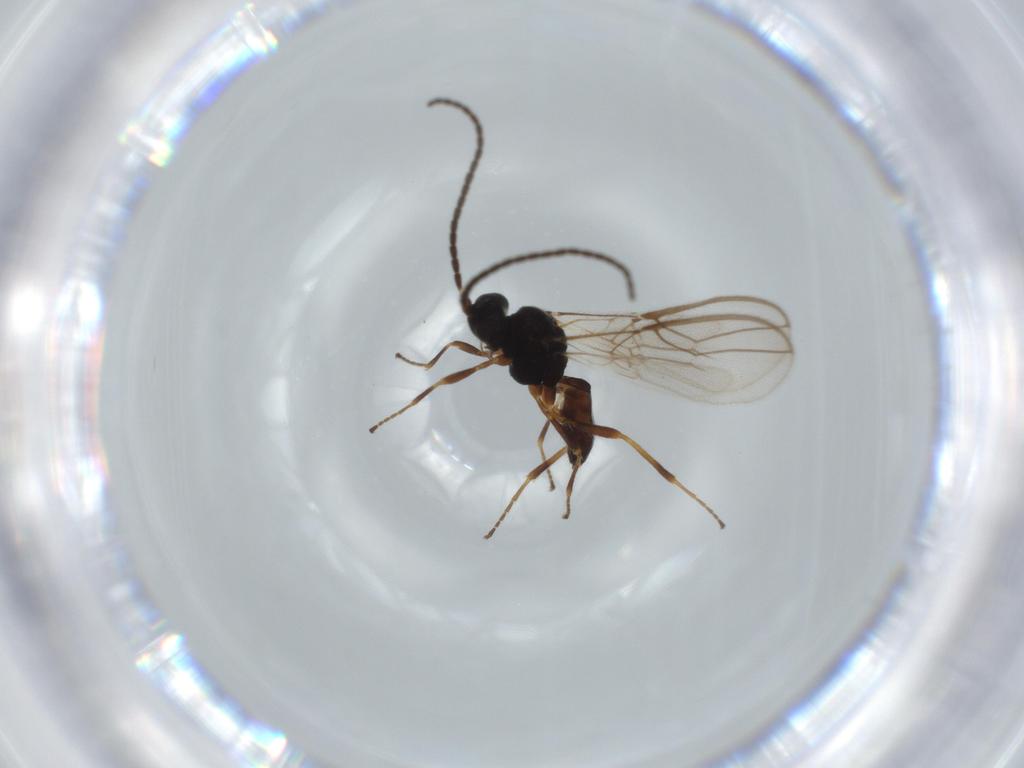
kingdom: Animalia
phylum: Arthropoda
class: Insecta
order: Hymenoptera
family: Braconidae
